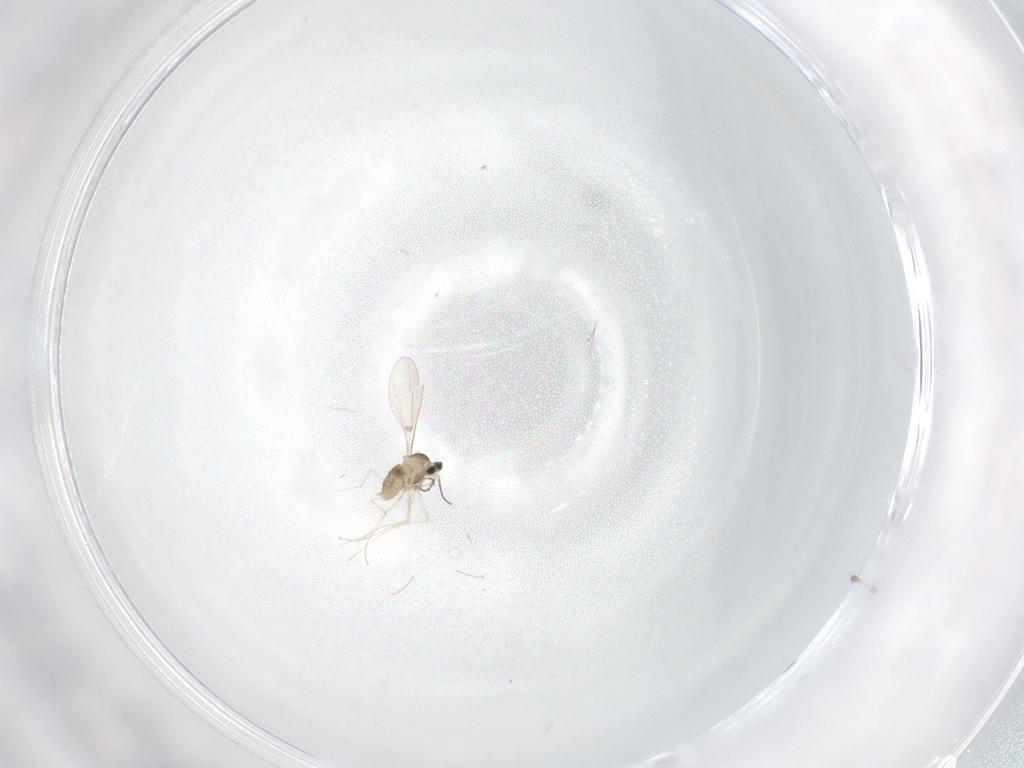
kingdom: Animalia
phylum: Arthropoda
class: Insecta
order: Diptera
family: Cecidomyiidae
